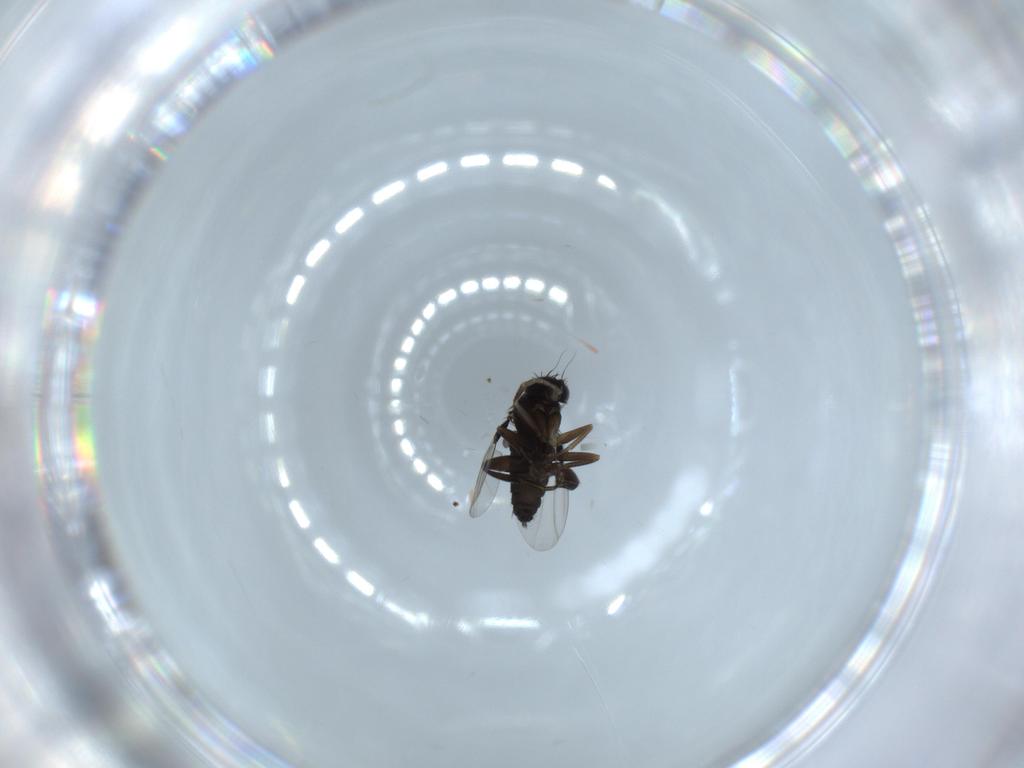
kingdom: Animalia
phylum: Arthropoda
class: Insecta
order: Diptera
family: Phoridae
